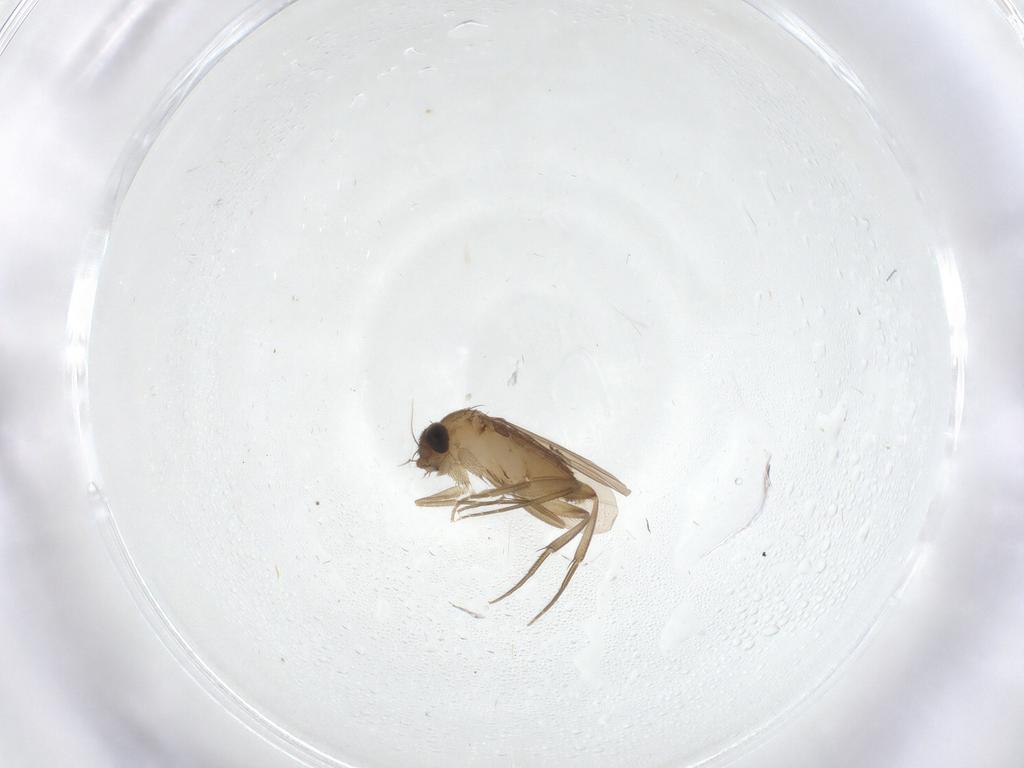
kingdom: Animalia
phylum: Arthropoda
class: Insecta
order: Diptera
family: Phoridae
